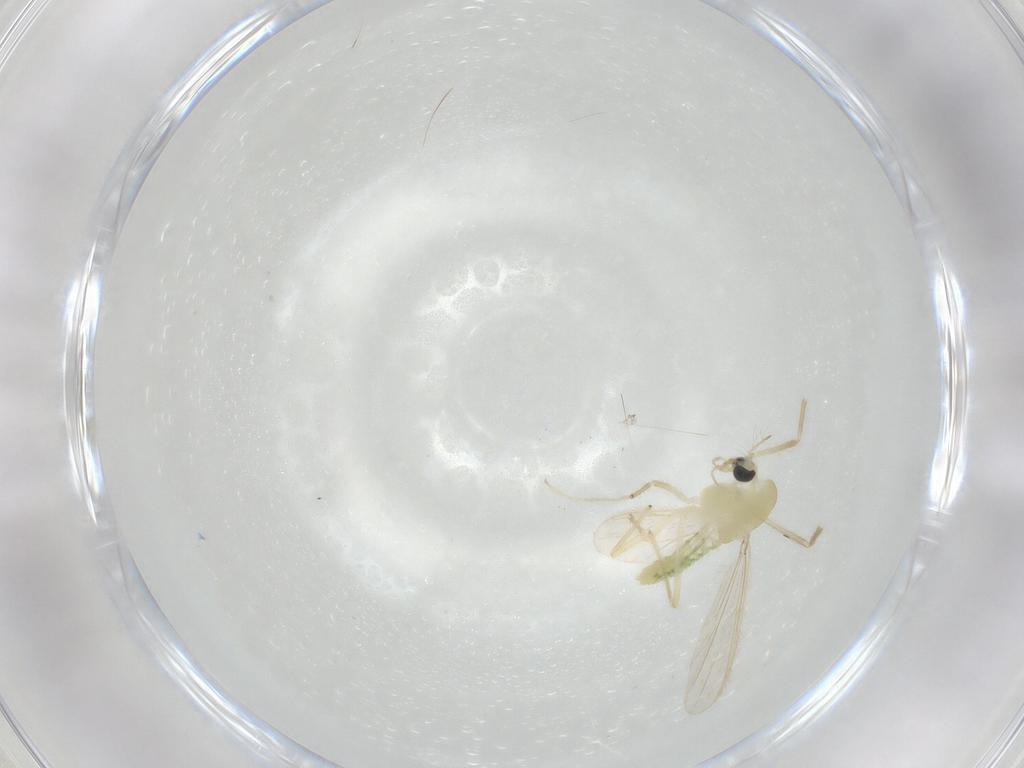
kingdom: Animalia
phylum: Arthropoda
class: Insecta
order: Diptera
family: Chironomidae
